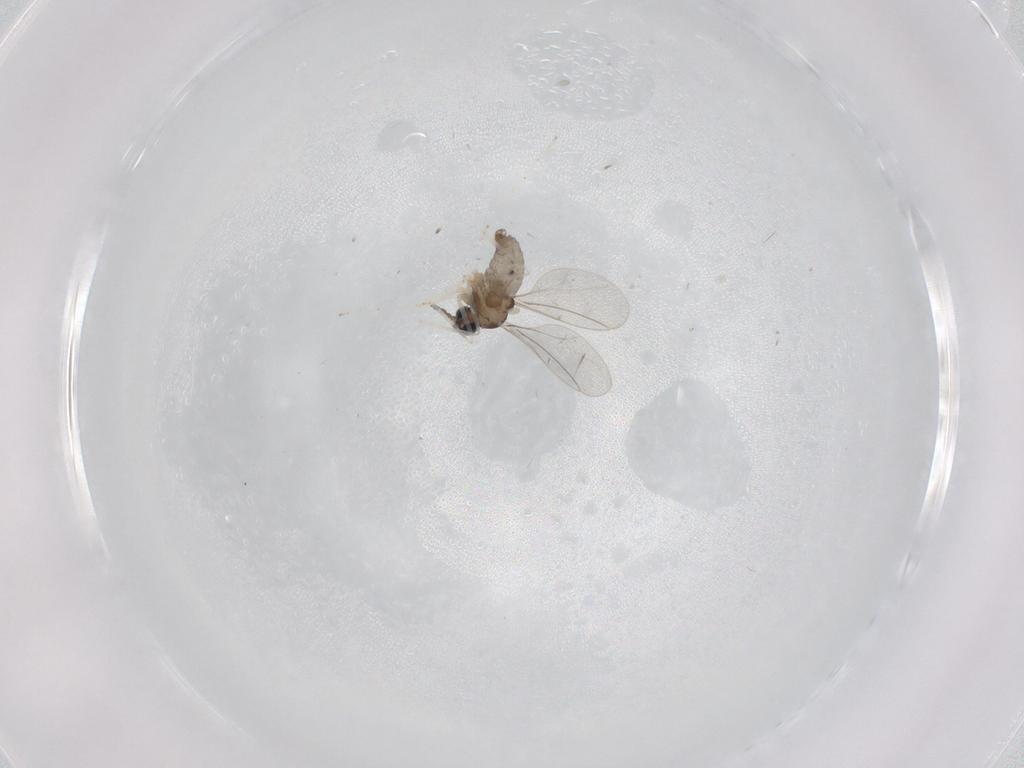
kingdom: Animalia
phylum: Arthropoda
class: Insecta
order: Diptera
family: Cecidomyiidae
